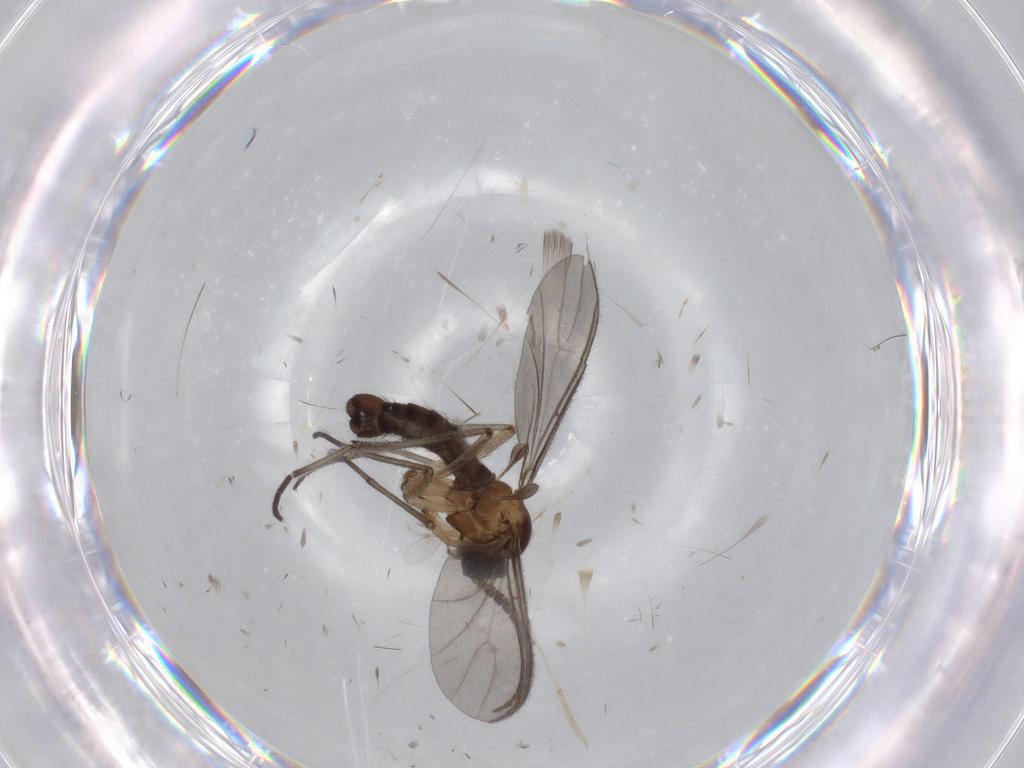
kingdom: Animalia
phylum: Arthropoda
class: Insecta
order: Diptera
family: Sciaridae
